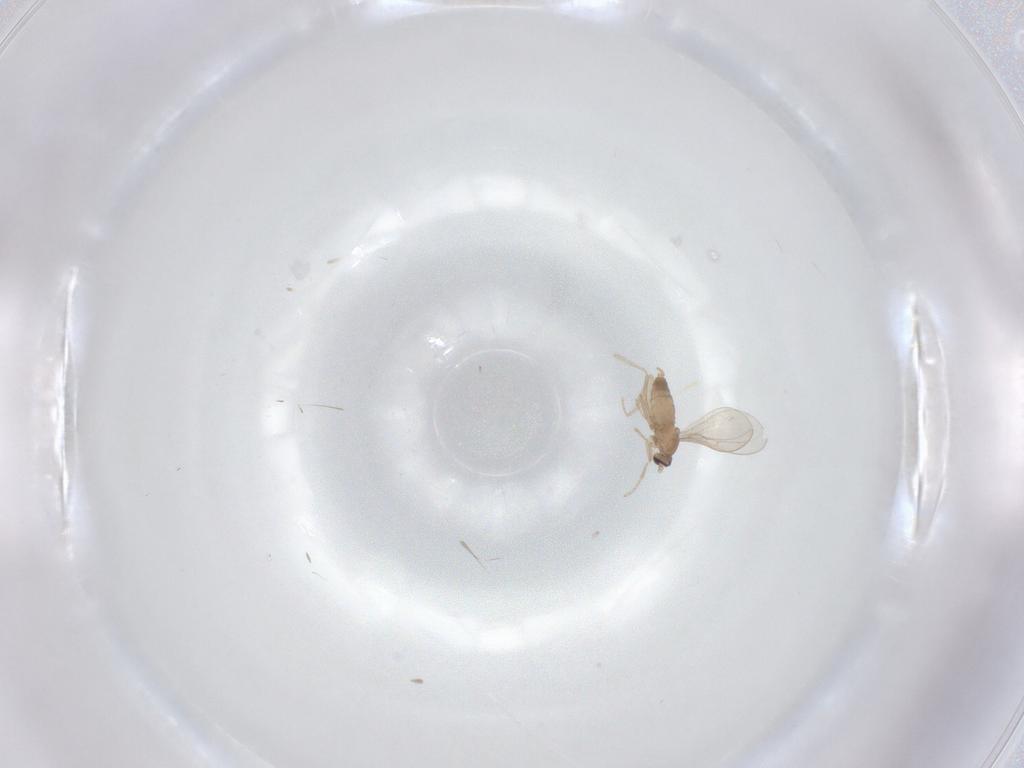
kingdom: Animalia
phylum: Arthropoda
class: Insecta
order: Diptera
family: Cecidomyiidae
